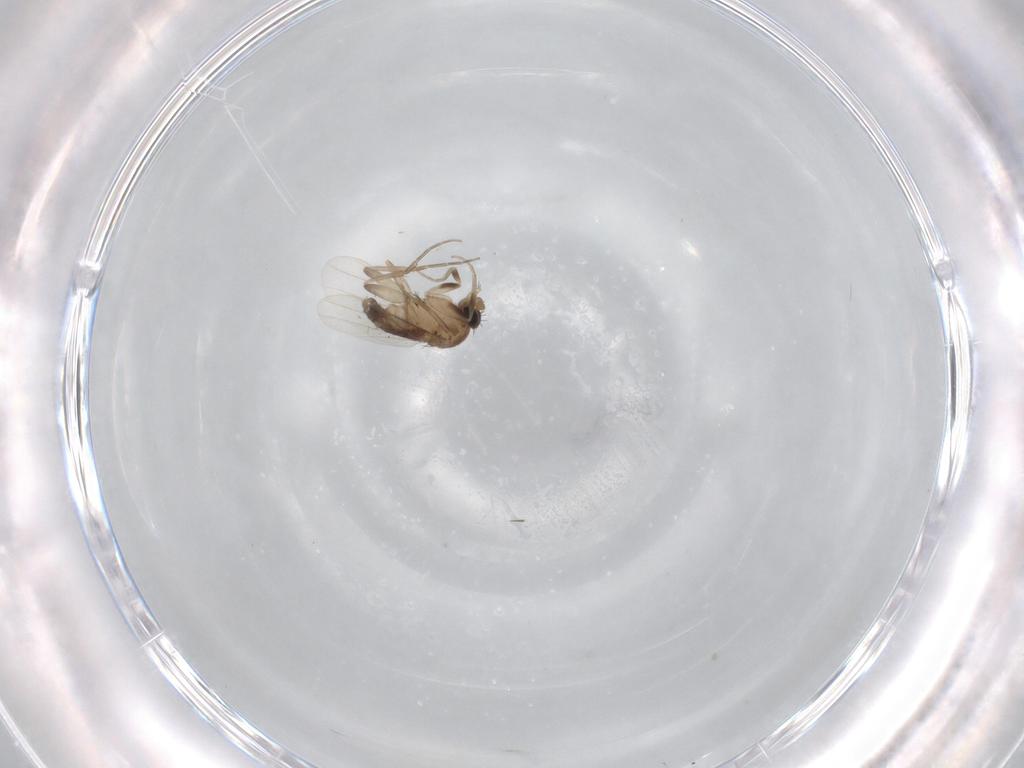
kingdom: Animalia
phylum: Arthropoda
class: Insecta
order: Diptera
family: Phoridae
